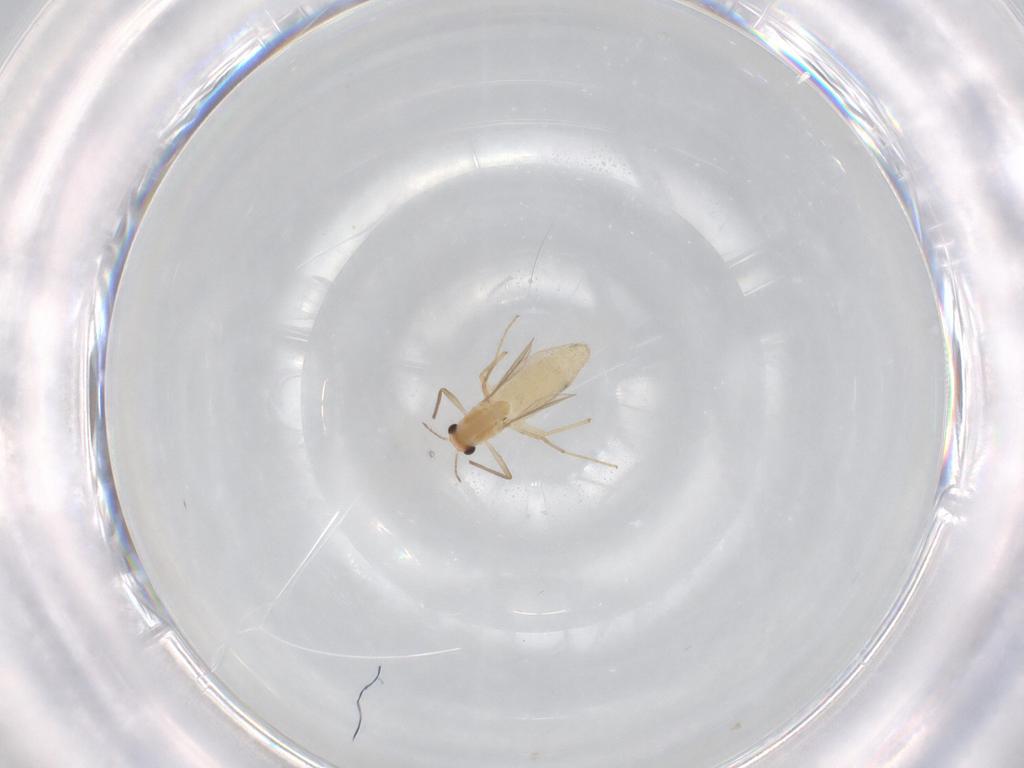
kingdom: Animalia
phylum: Arthropoda
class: Insecta
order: Diptera
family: Chironomidae
